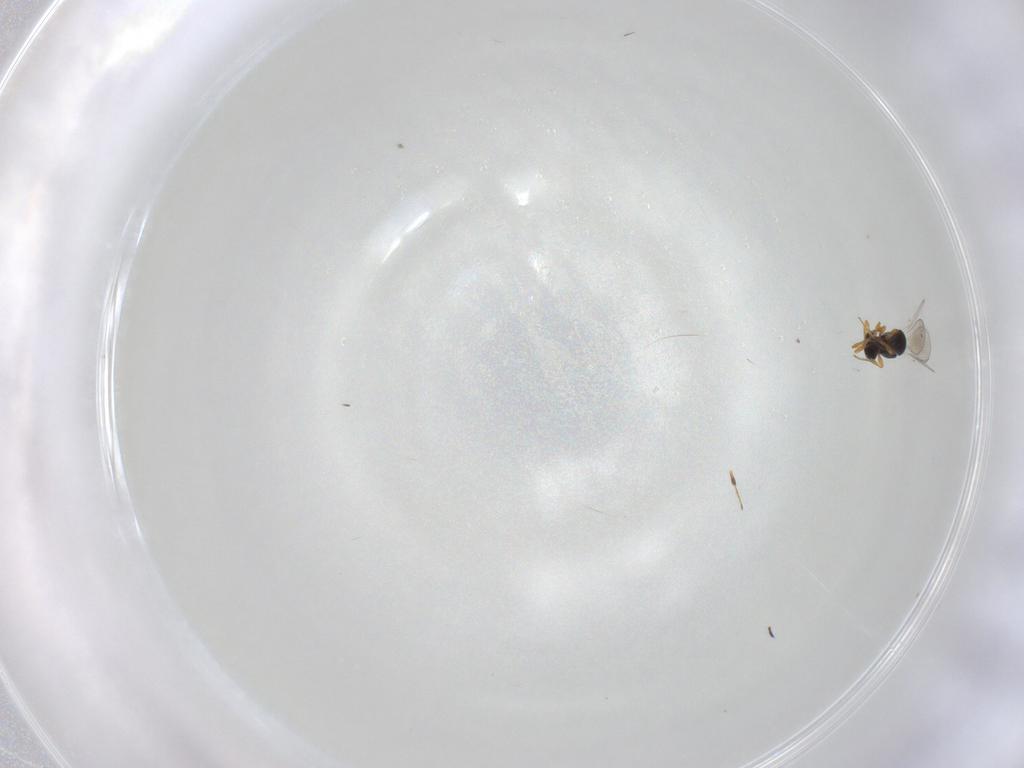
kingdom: Animalia
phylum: Arthropoda
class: Insecta
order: Hymenoptera
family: Platygastridae
